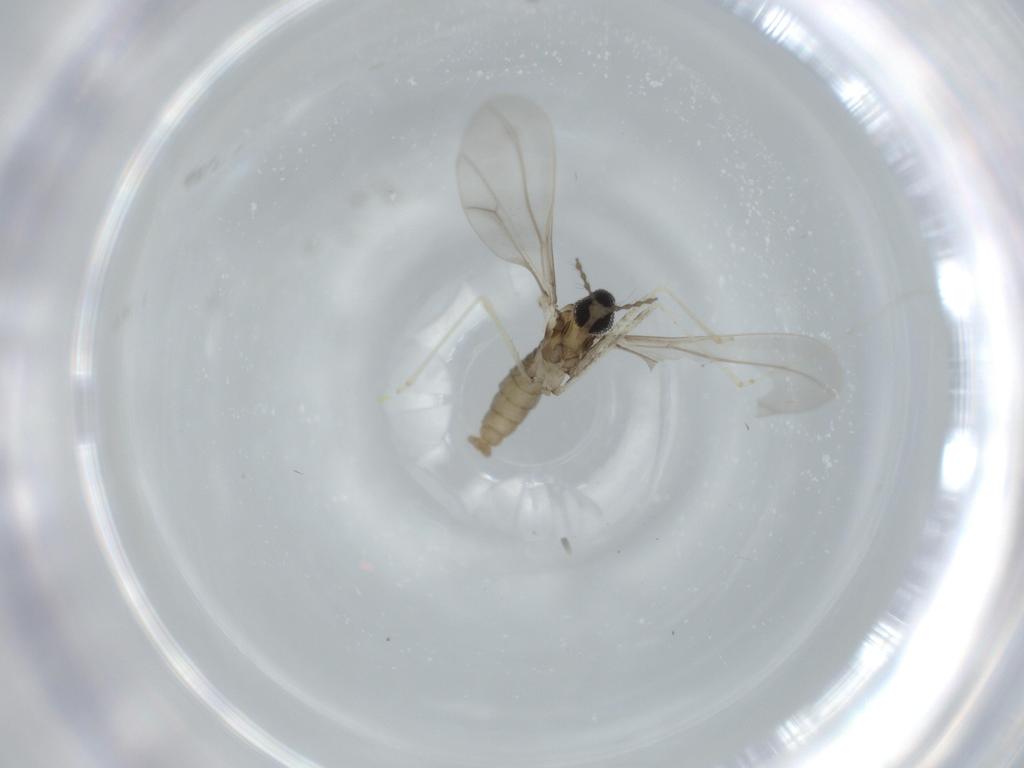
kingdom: Animalia
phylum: Arthropoda
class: Insecta
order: Diptera
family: Cecidomyiidae
